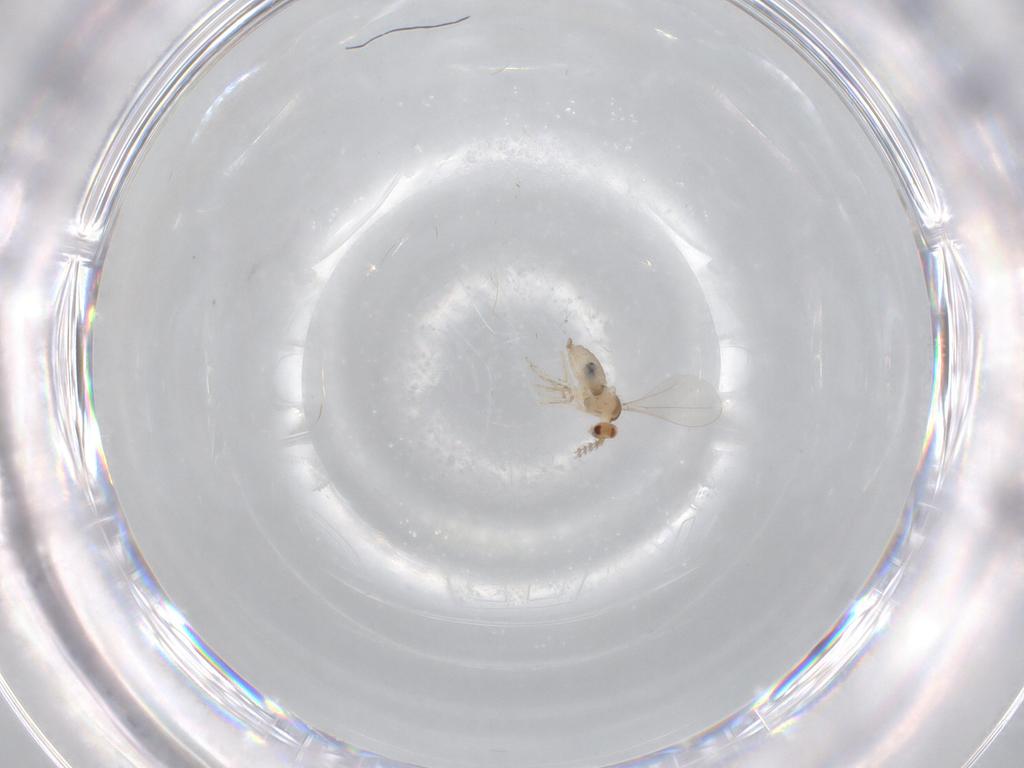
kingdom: Animalia
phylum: Arthropoda
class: Insecta
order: Diptera
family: Cecidomyiidae
